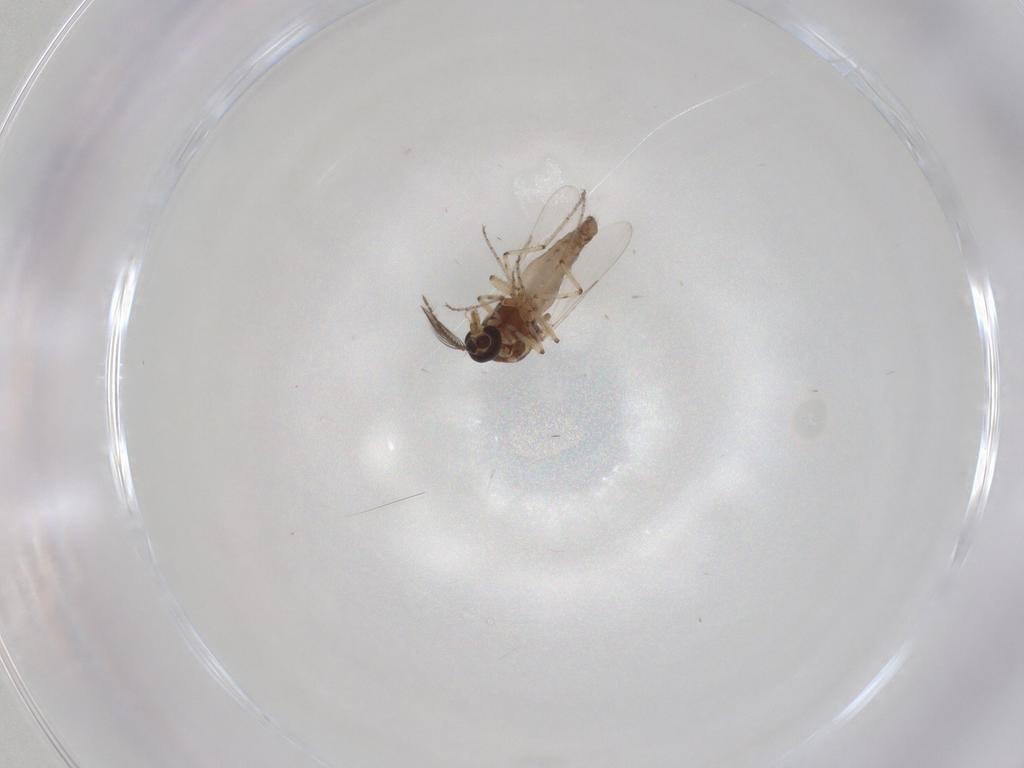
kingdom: Animalia
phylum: Arthropoda
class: Insecta
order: Diptera
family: Ceratopogonidae
